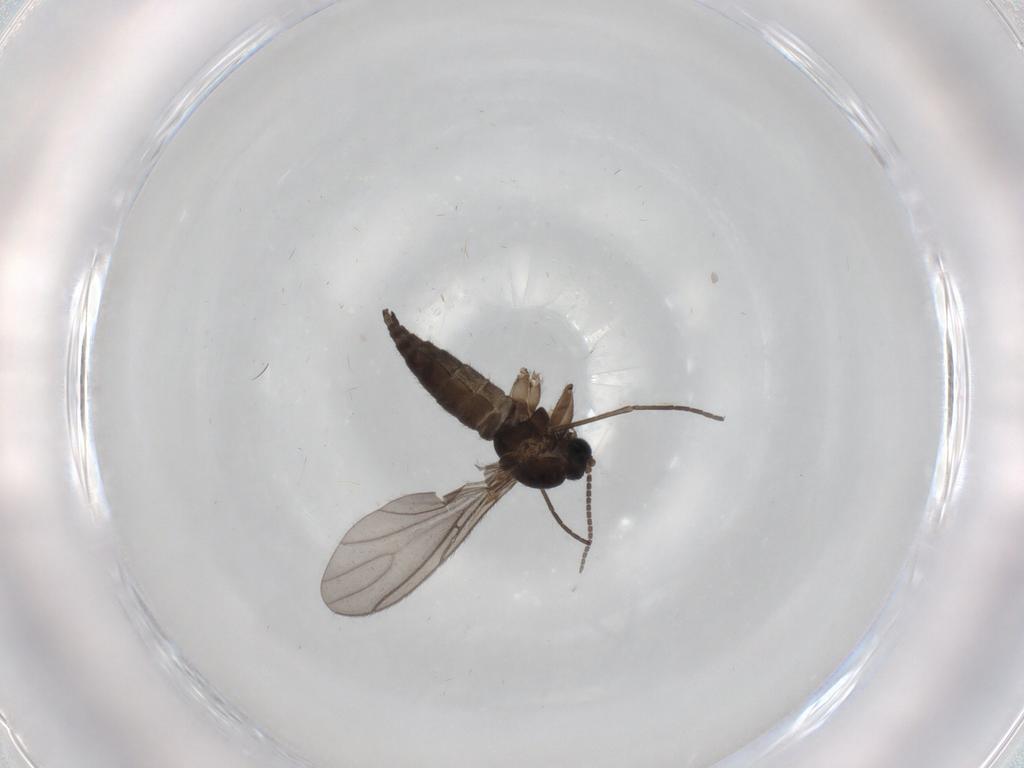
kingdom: Animalia
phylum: Arthropoda
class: Insecta
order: Diptera
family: Sciaridae
